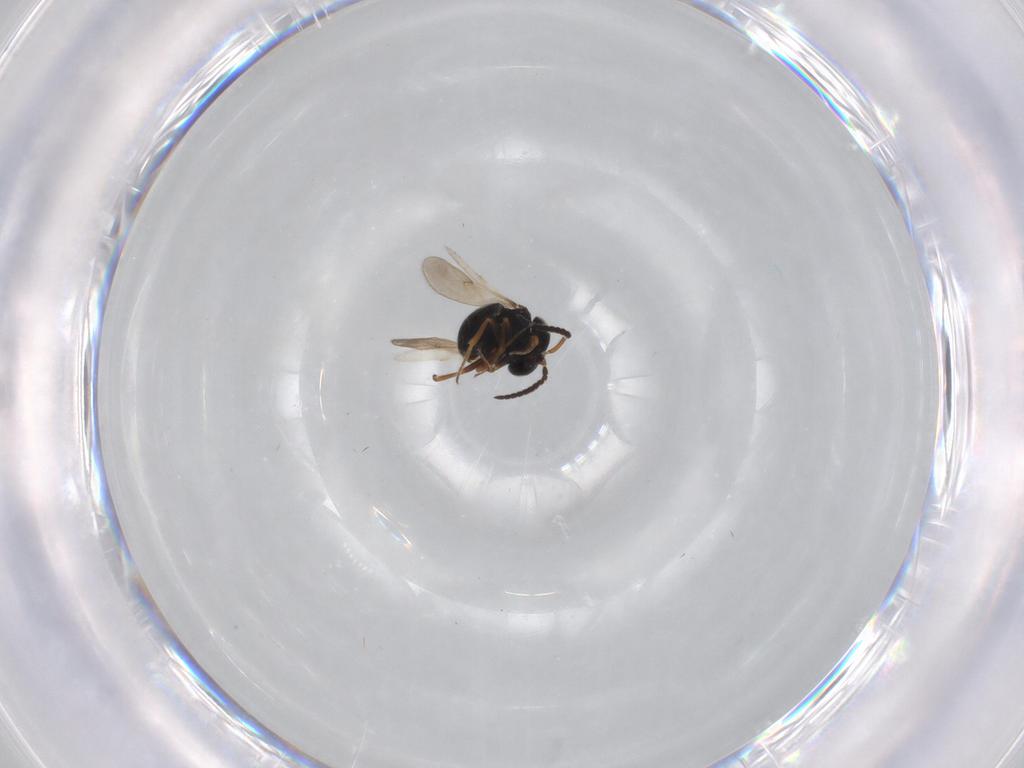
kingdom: Animalia
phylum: Arthropoda
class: Insecta
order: Hymenoptera
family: Scelionidae
